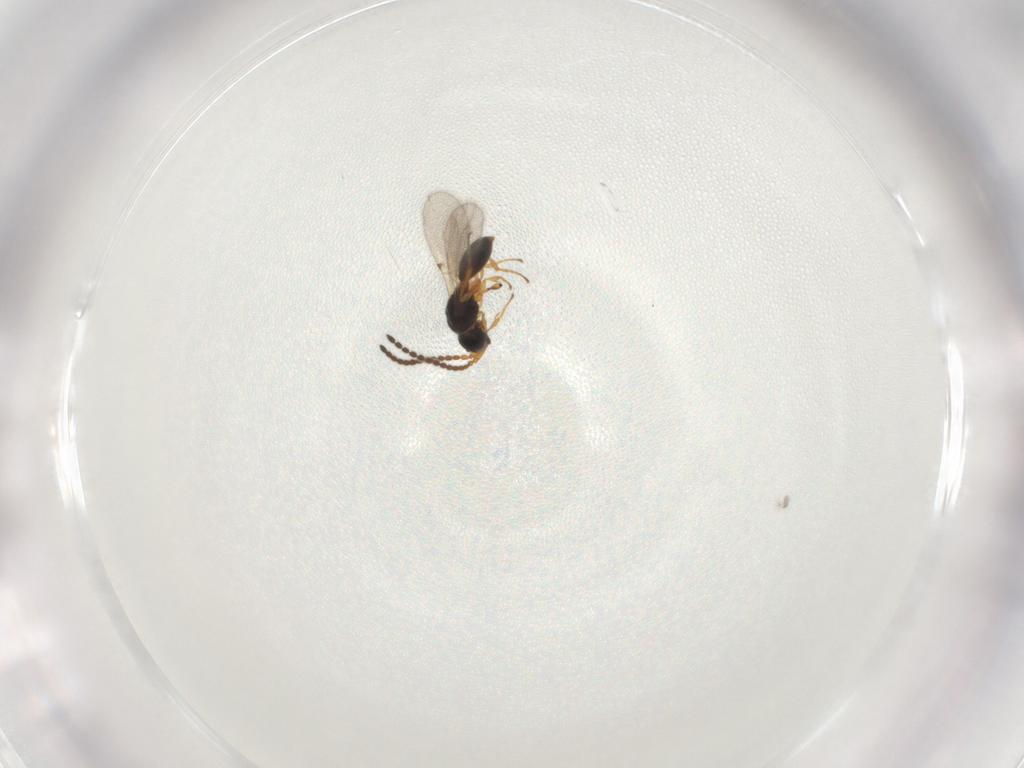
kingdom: Animalia
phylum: Arthropoda
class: Insecta
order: Hymenoptera
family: Diapriidae
